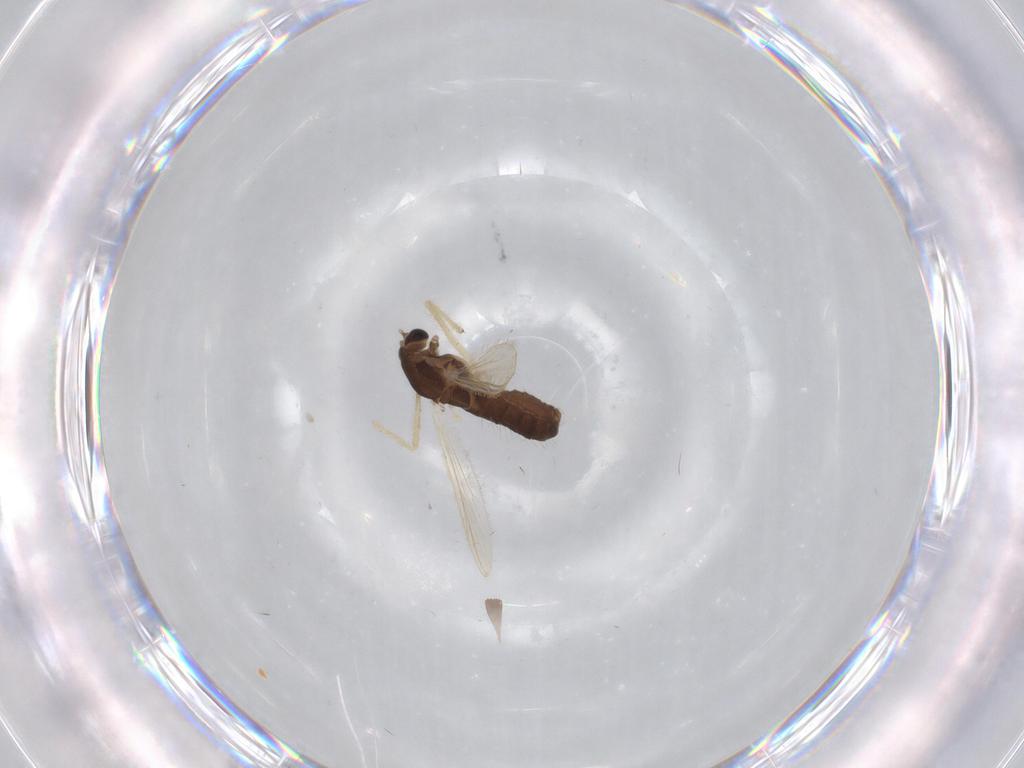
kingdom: Animalia
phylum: Arthropoda
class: Insecta
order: Diptera
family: Chironomidae
